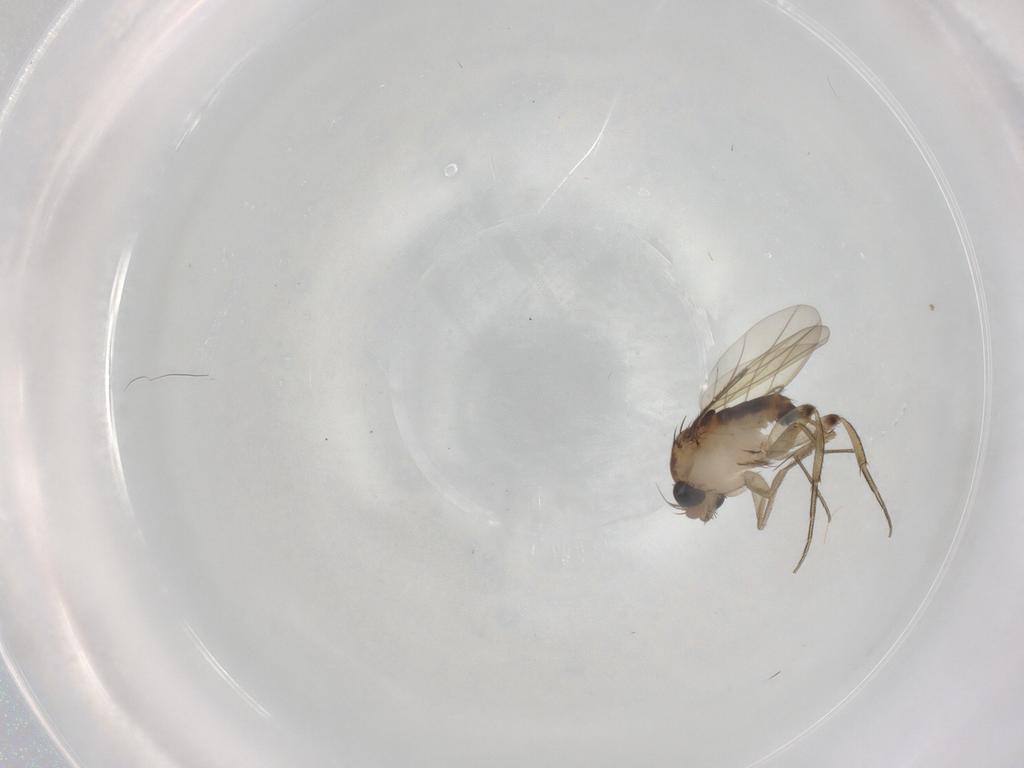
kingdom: Animalia
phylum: Arthropoda
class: Insecta
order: Diptera
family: Phoridae
